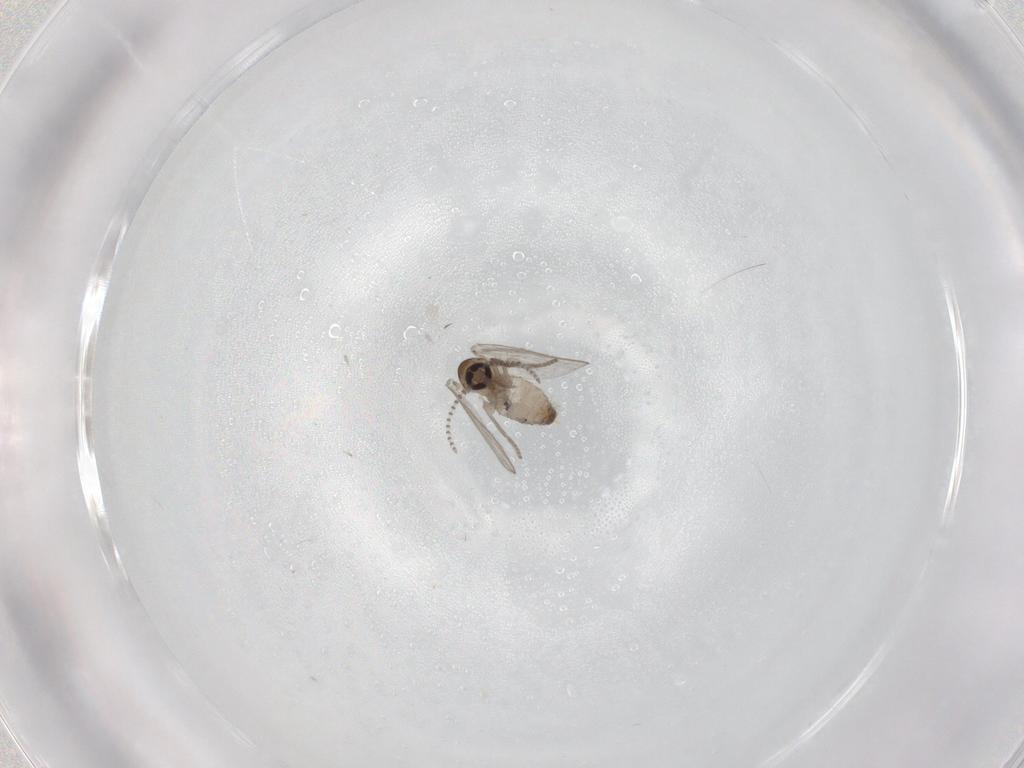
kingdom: Animalia
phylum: Arthropoda
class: Insecta
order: Diptera
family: Psychodidae
